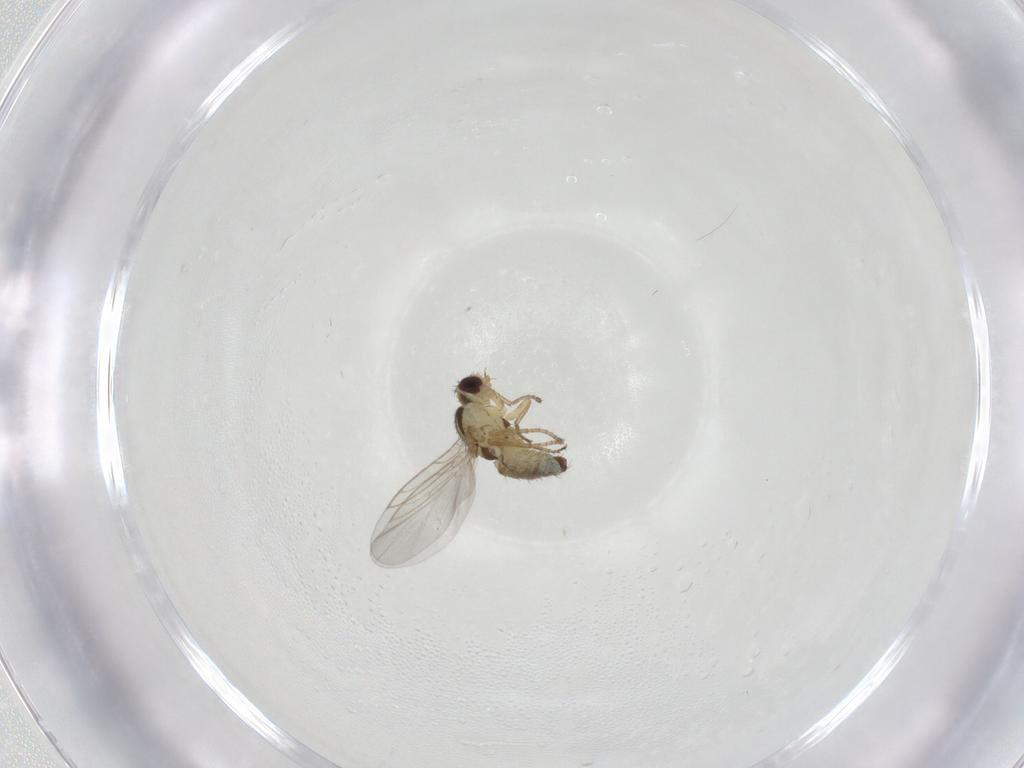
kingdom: Animalia
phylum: Arthropoda
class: Insecta
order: Diptera
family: Agromyzidae
